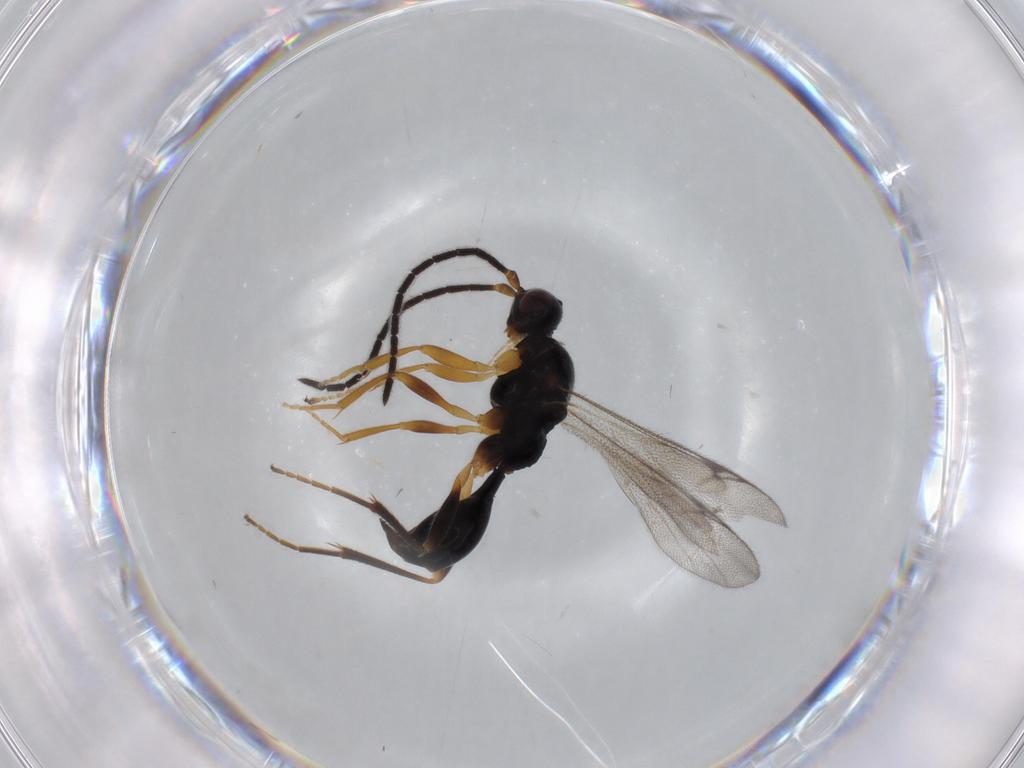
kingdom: Animalia
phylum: Arthropoda
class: Insecta
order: Hymenoptera
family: Proctotrupidae
